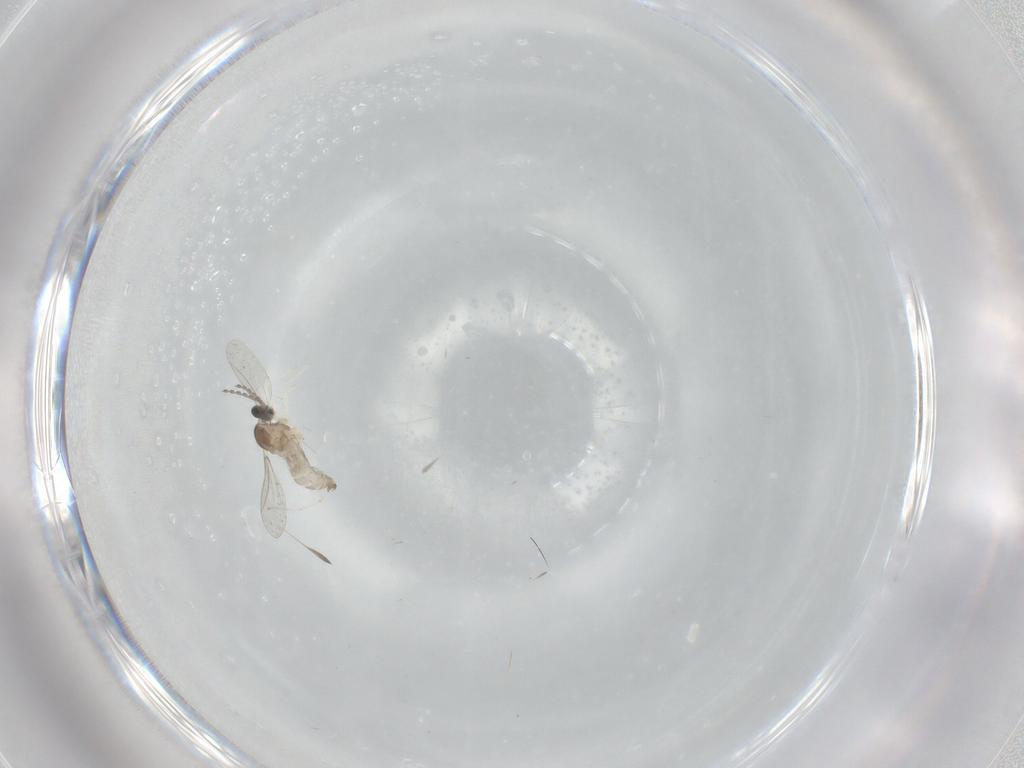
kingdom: Animalia
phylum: Arthropoda
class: Insecta
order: Diptera
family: Cecidomyiidae
